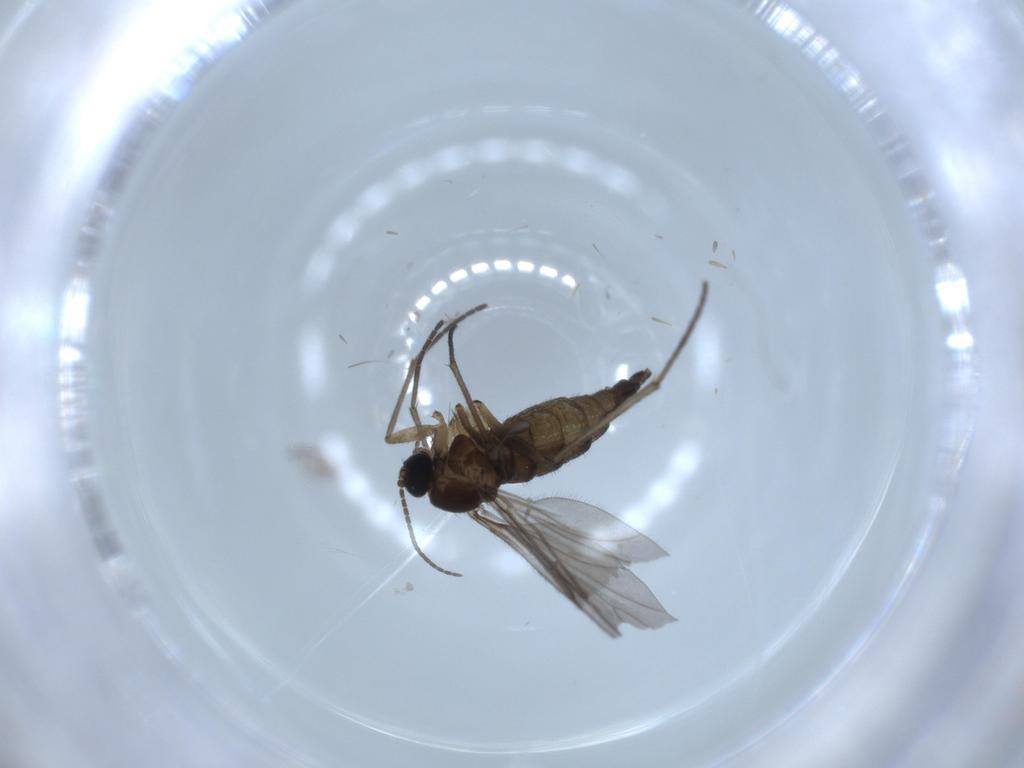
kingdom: Animalia
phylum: Arthropoda
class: Insecta
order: Diptera
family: Sciaridae
